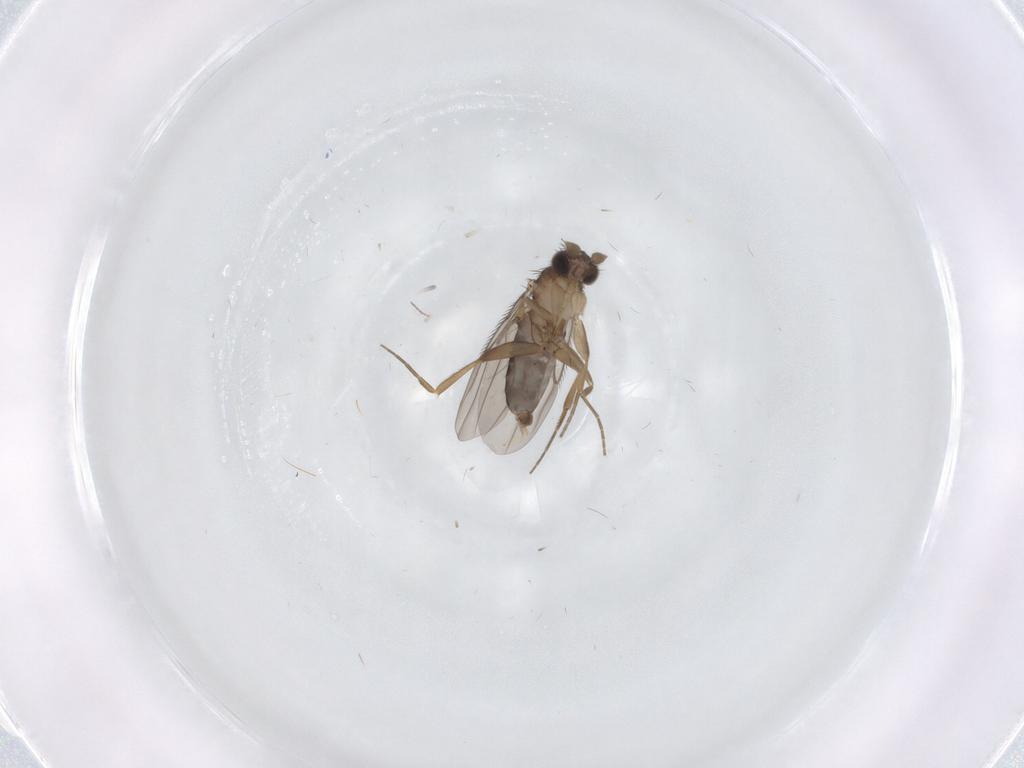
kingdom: Animalia
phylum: Arthropoda
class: Insecta
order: Diptera
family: Phoridae
